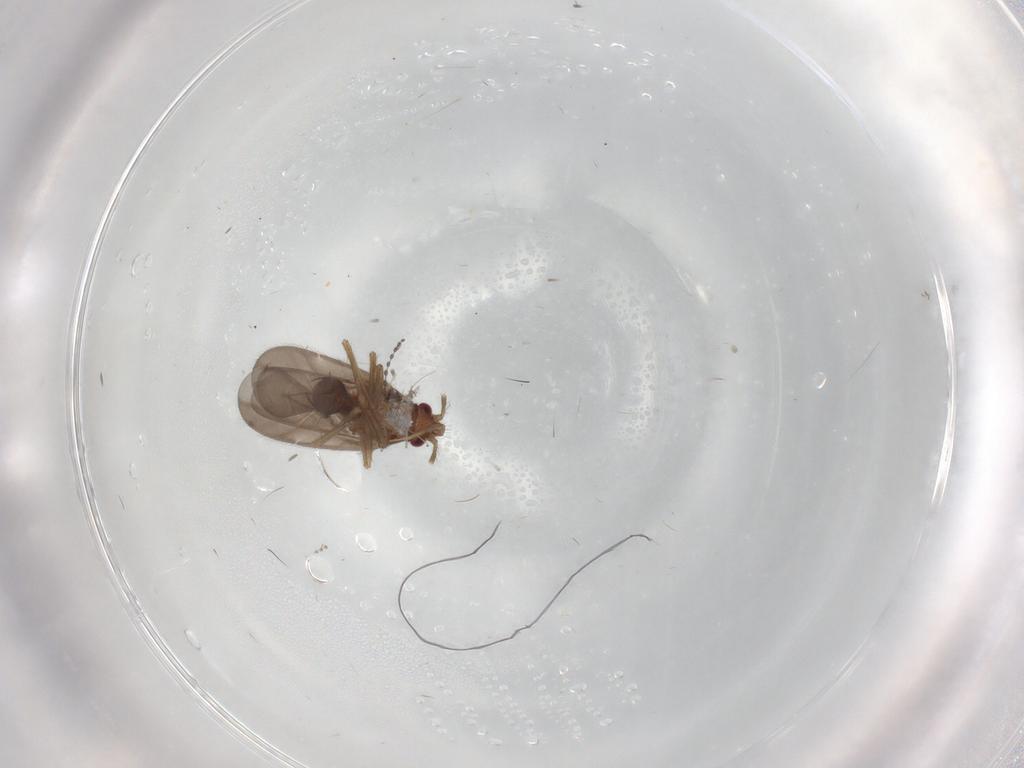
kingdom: Animalia
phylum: Arthropoda
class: Insecta
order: Hemiptera
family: Ceratocombidae
